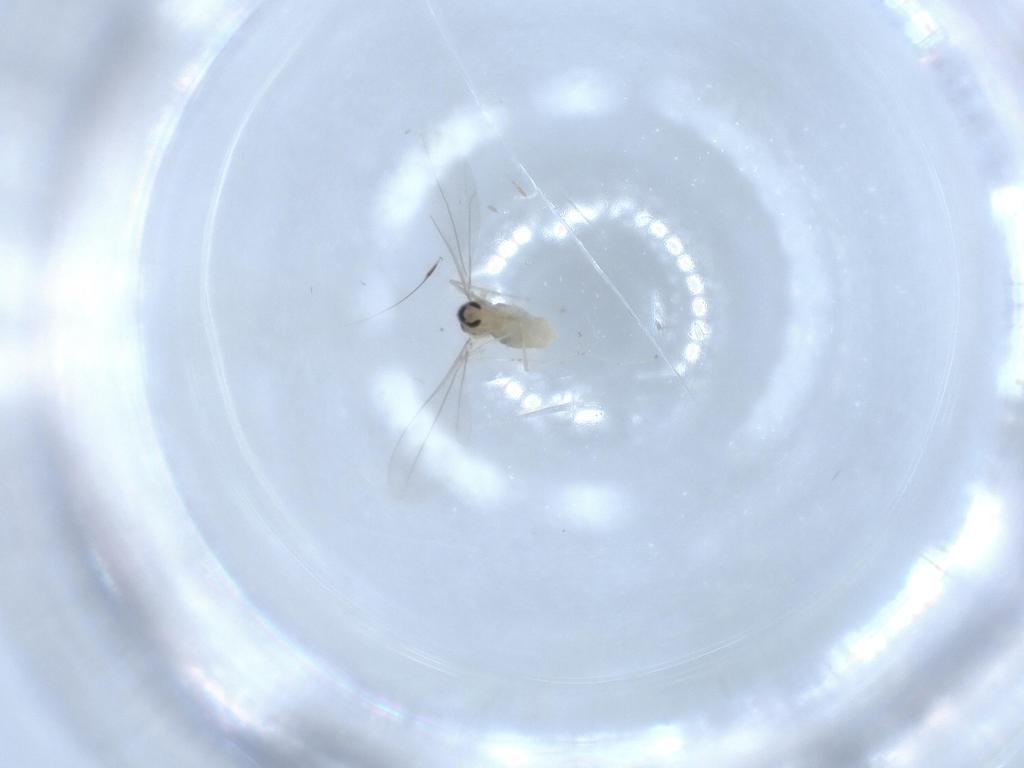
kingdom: Animalia
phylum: Arthropoda
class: Insecta
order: Diptera
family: Cecidomyiidae
